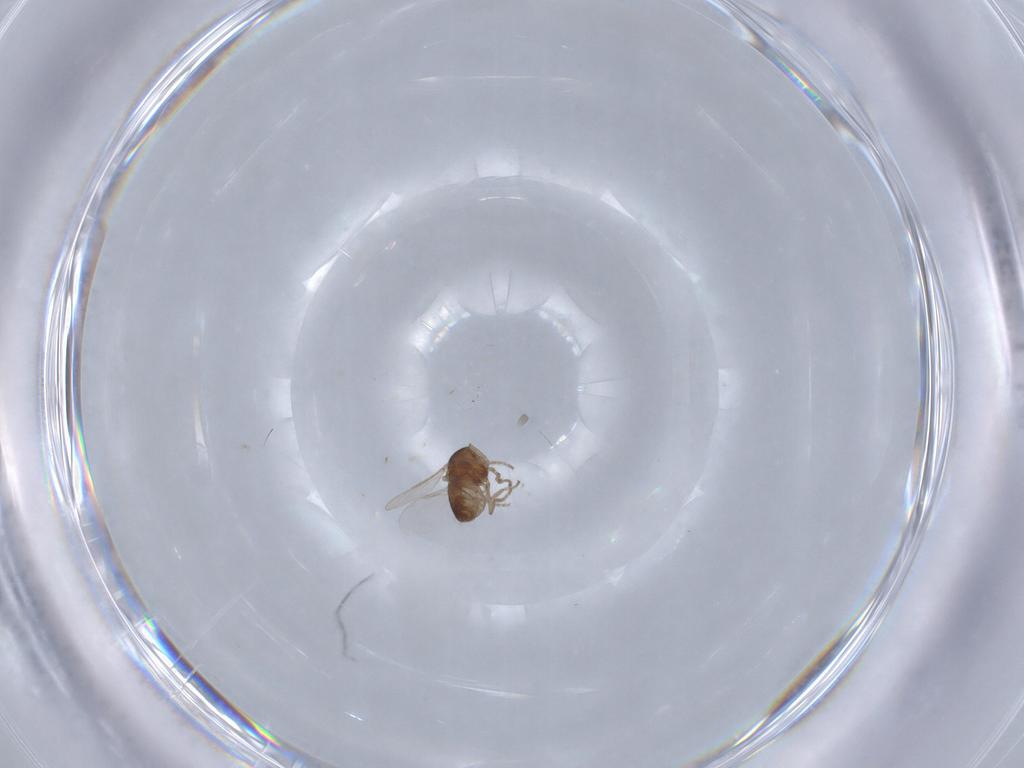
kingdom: Animalia
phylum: Arthropoda
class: Insecta
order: Diptera
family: Ceratopogonidae
